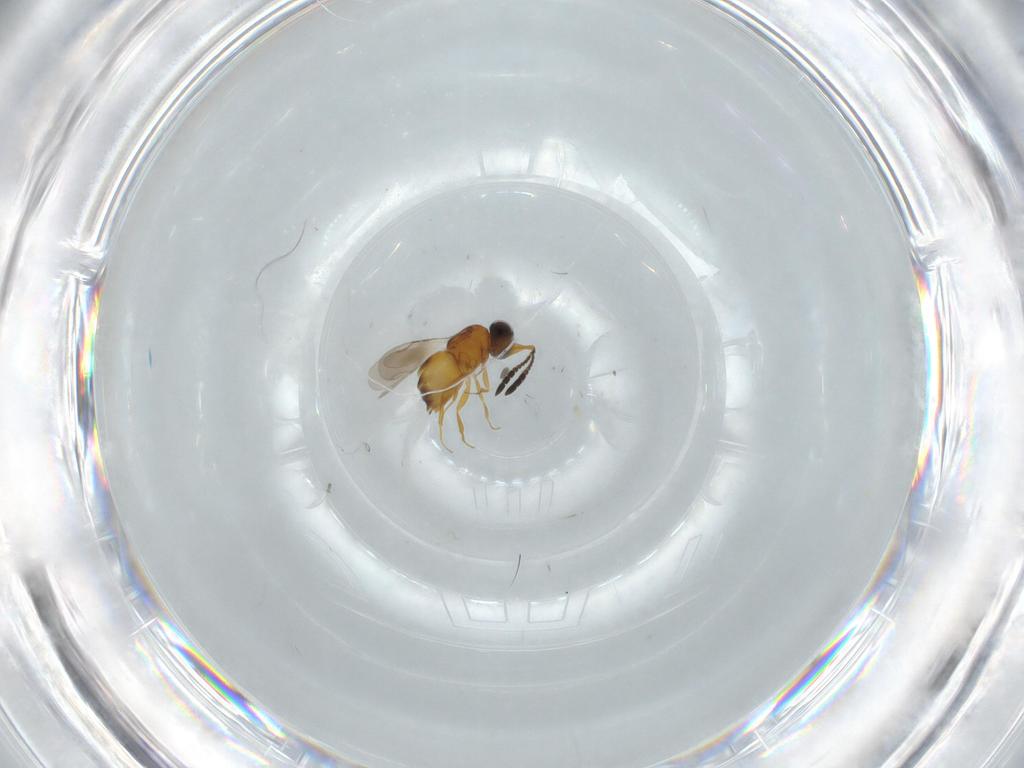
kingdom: Animalia
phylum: Arthropoda
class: Insecta
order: Hymenoptera
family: Ceraphronidae
